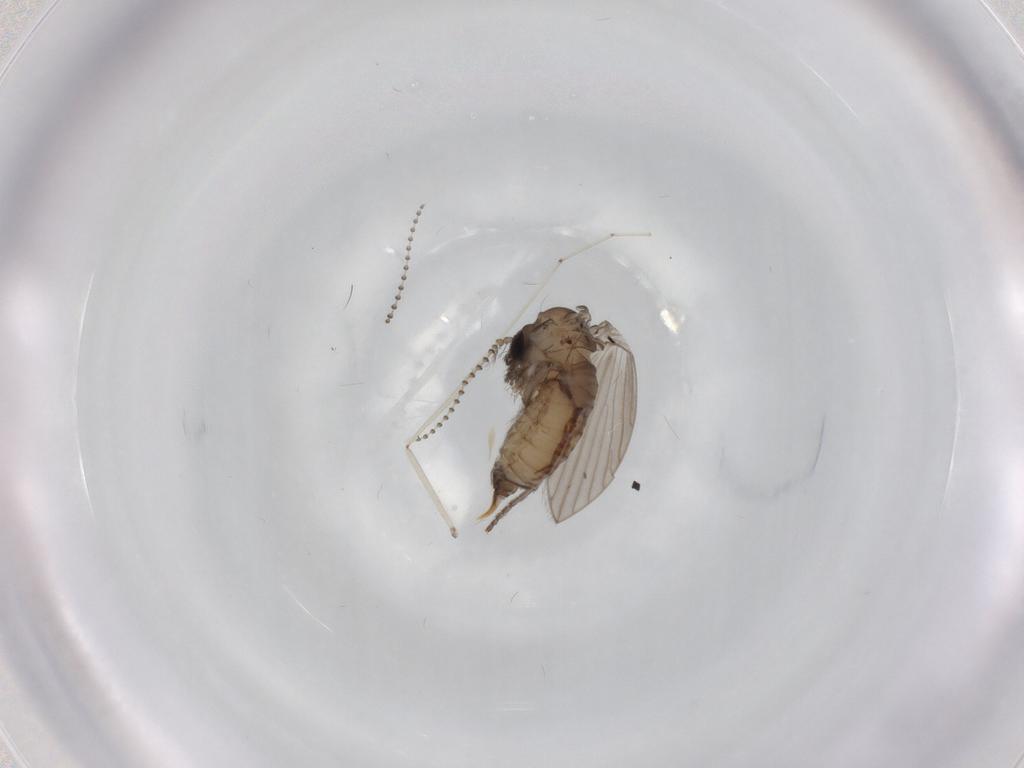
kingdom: Animalia
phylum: Arthropoda
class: Insecta
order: Diptera
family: Psychodidae
